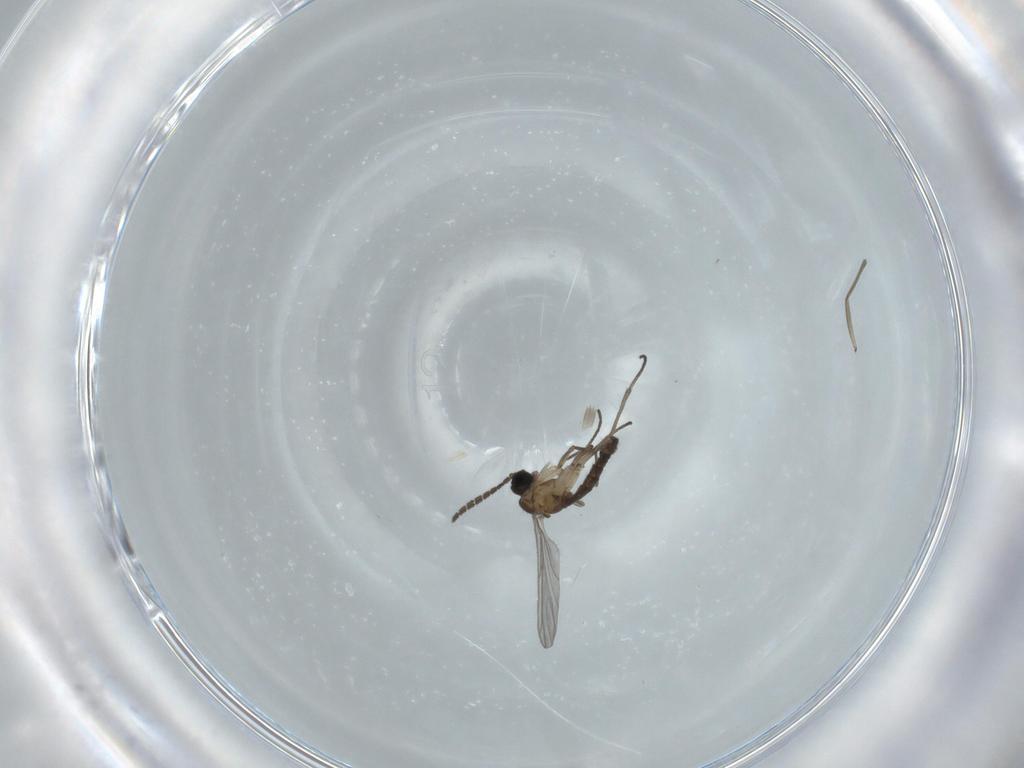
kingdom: Animalia
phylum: Arthropoda
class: Insecta
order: Diptera
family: Sciaridae
